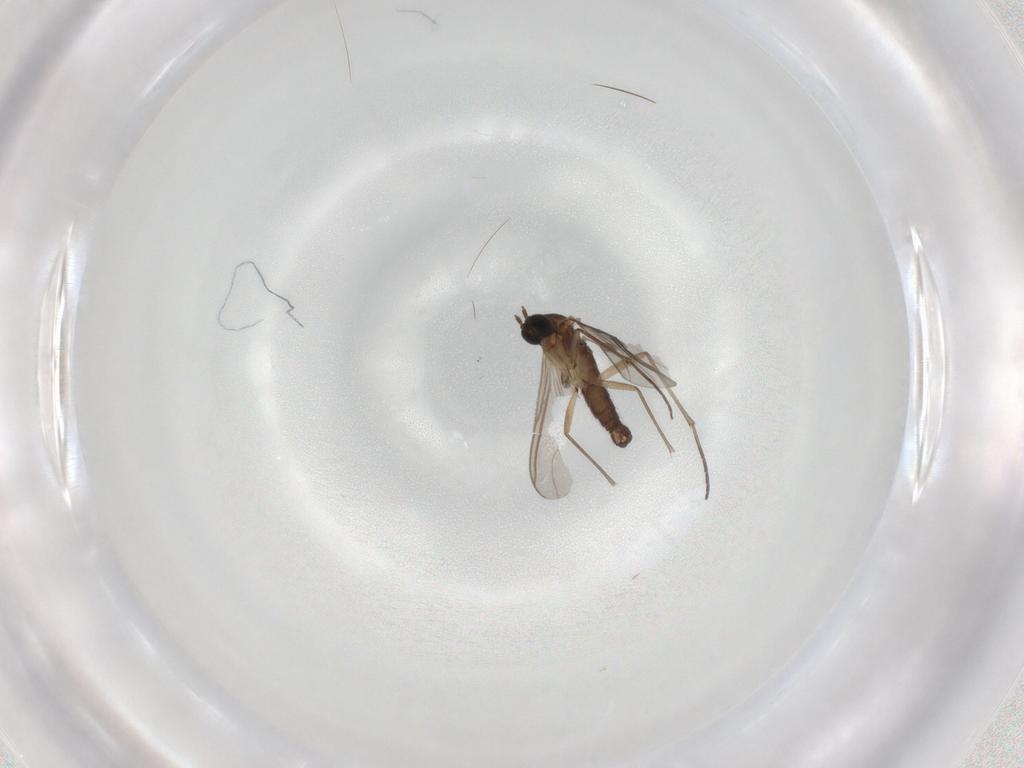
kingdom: Animalia
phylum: Arthropoda
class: Insecta
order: Diptera
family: Sciaridae
